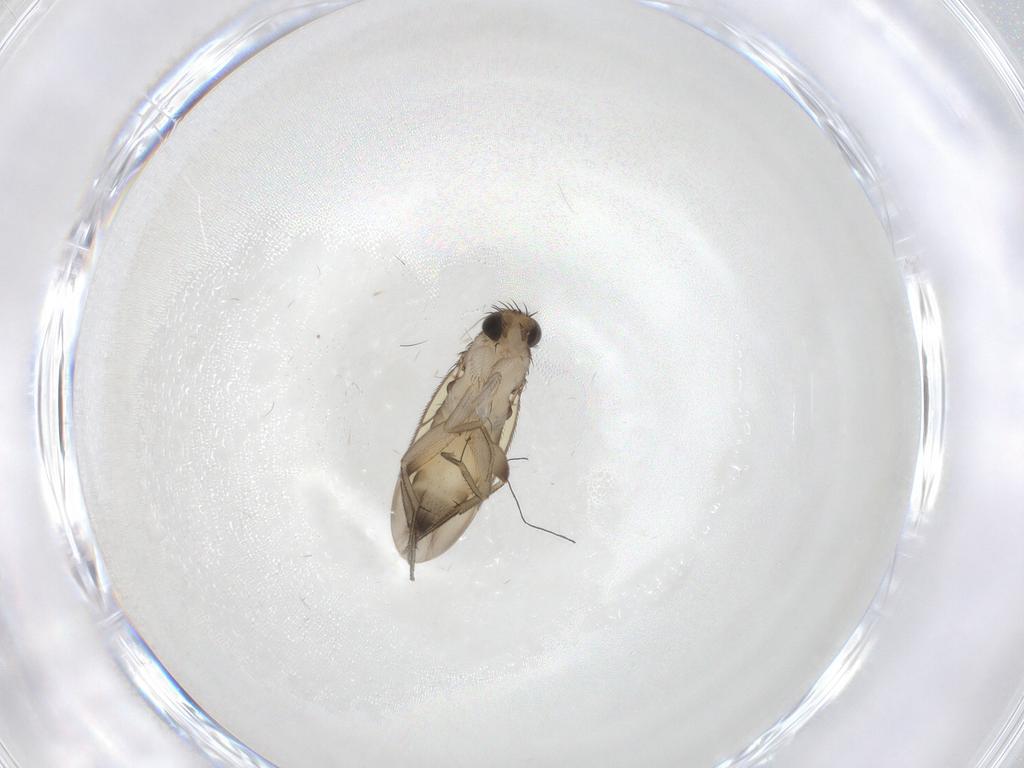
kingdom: Animalia
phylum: Arthropoda
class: Insecta
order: Diptera
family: Phoridae
